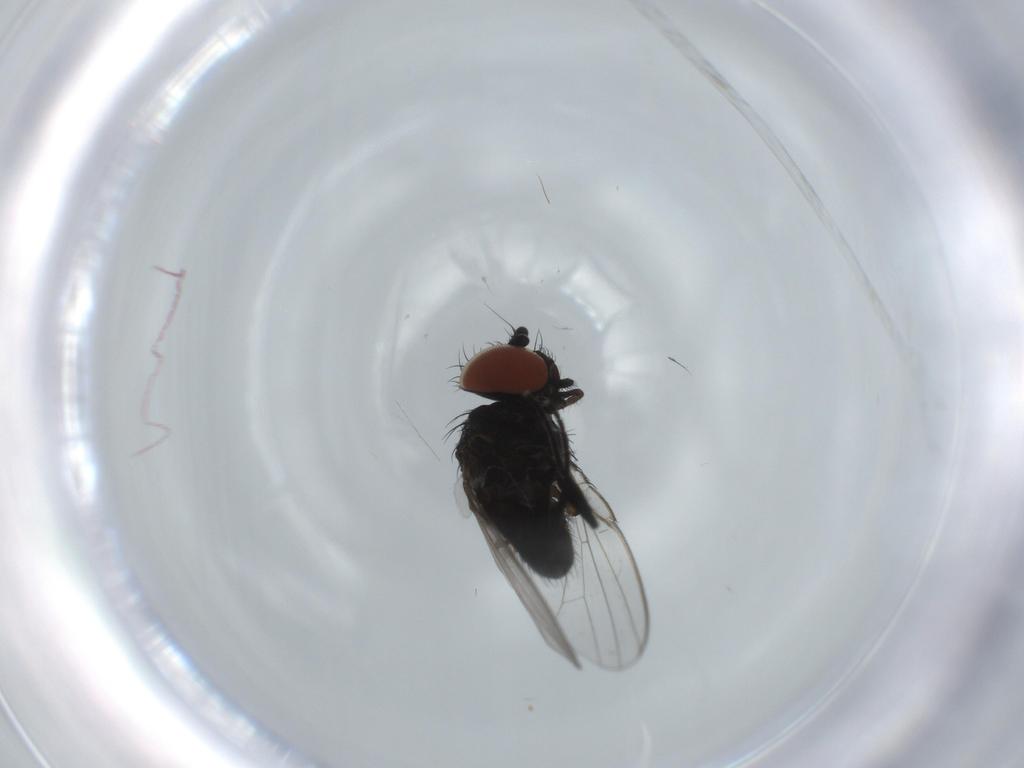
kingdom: Animalia
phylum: Arthropoda
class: Insecta
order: Diptera
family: Milichiidae
